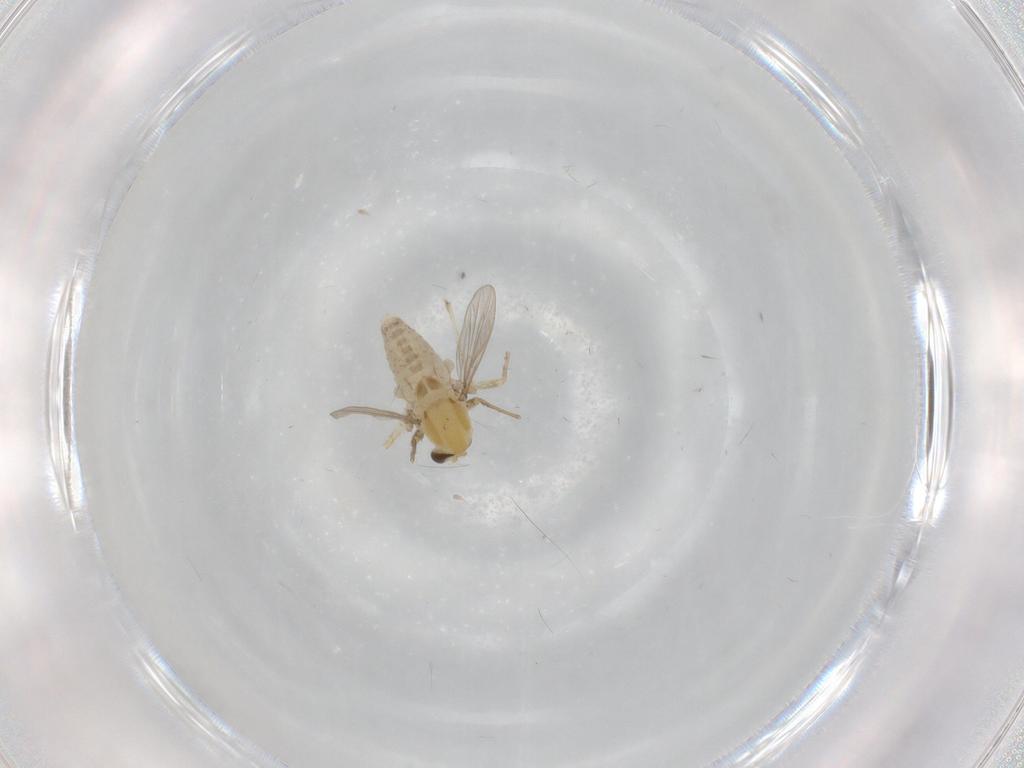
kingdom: Animalia
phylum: Arthropoda
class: Insecta
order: Diptera
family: Chironomidae
